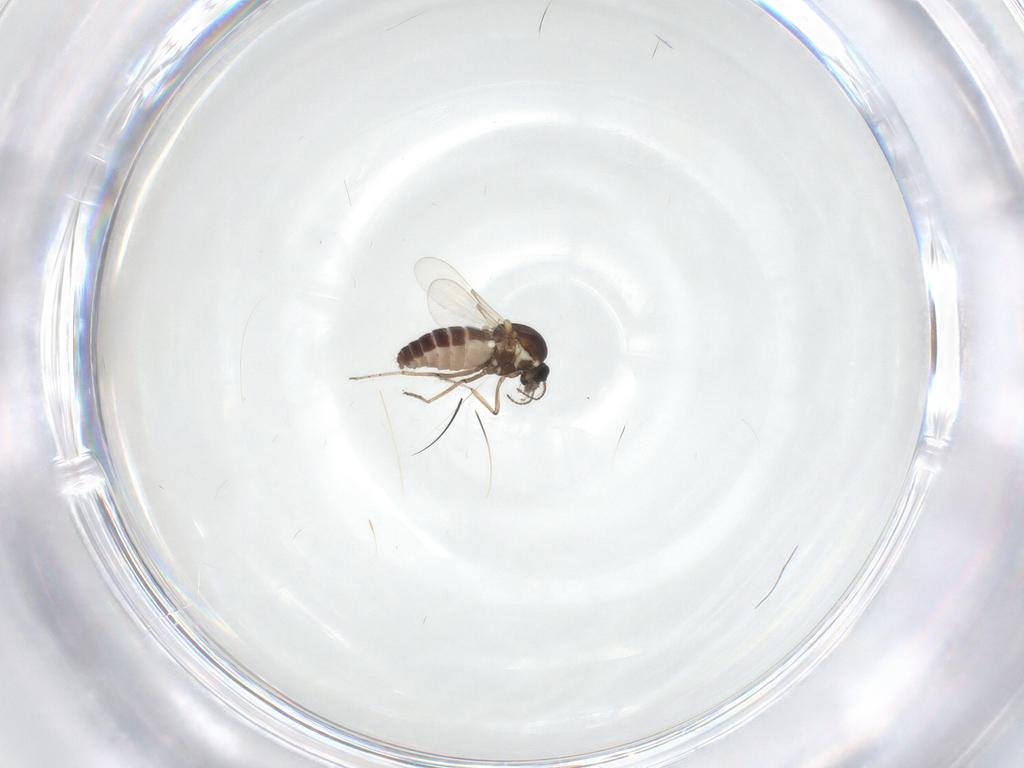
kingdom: Animalia
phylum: Arthropoda
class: Insecta
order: Diptera
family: Ceratopogonidae
